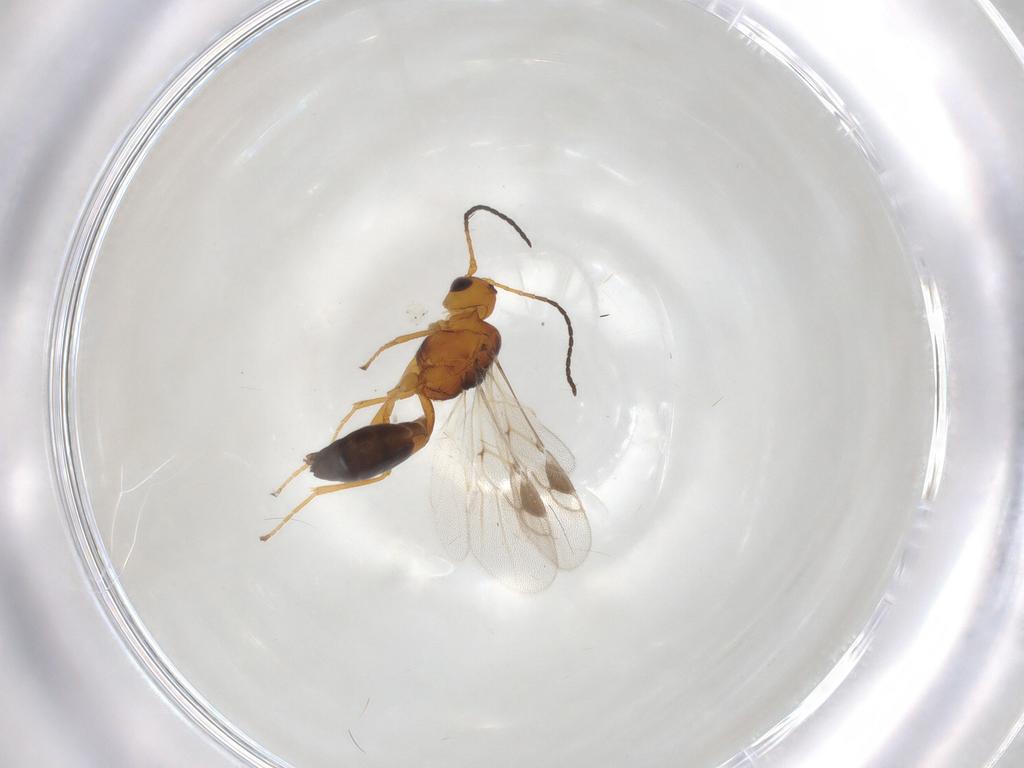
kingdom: Animalia
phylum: Arthropoda
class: Insecta
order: Hymenoptera
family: Braconidae
